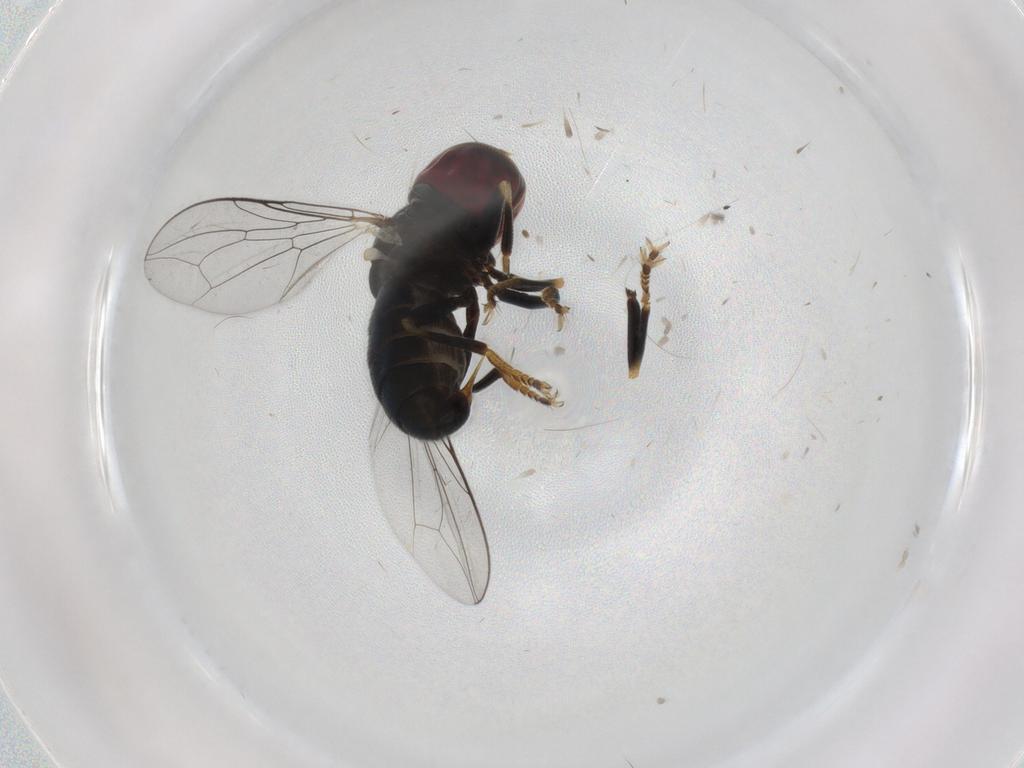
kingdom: Animalia
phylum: Arthropoda
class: Insecta
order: Diptera
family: Pipunculidae
